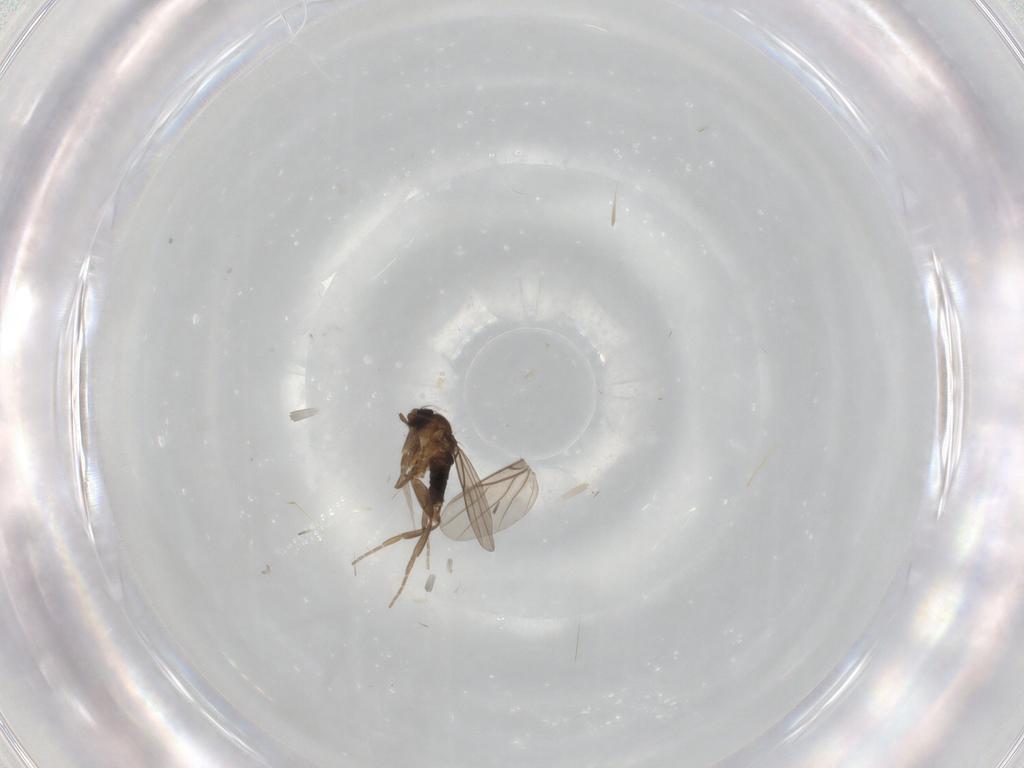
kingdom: Animalia
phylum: Arthropoda
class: Insecta
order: Diptera
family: Phoridae
